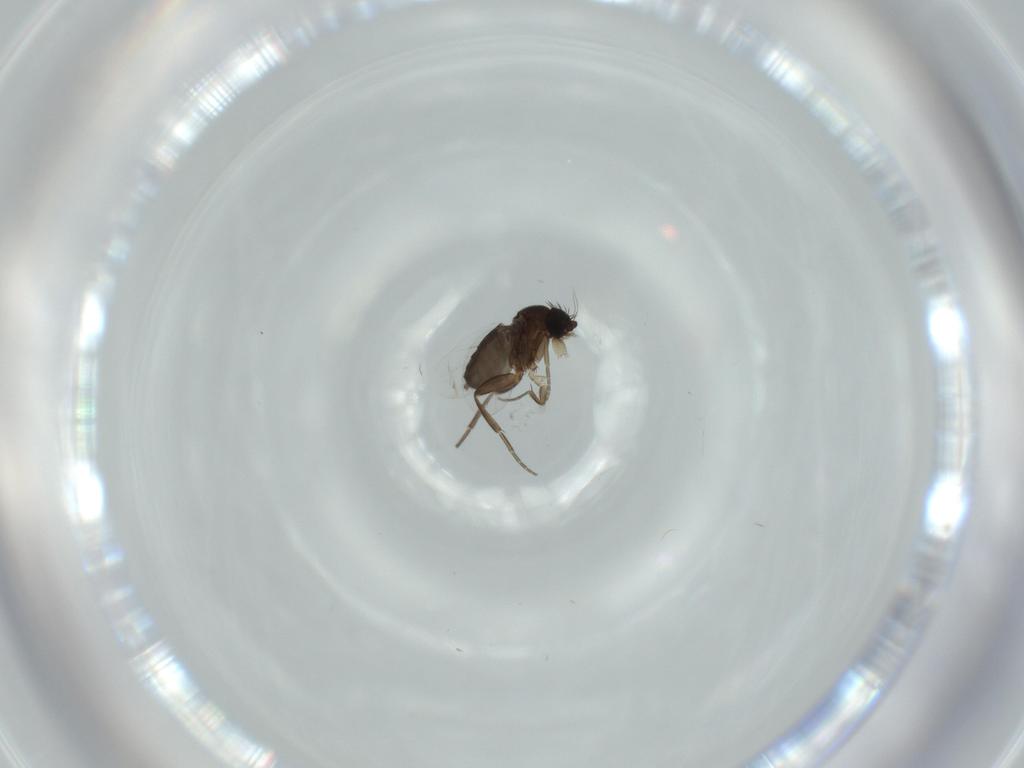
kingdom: Animalia
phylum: Arthropoda
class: Insecta
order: Diptera
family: Phoridae
